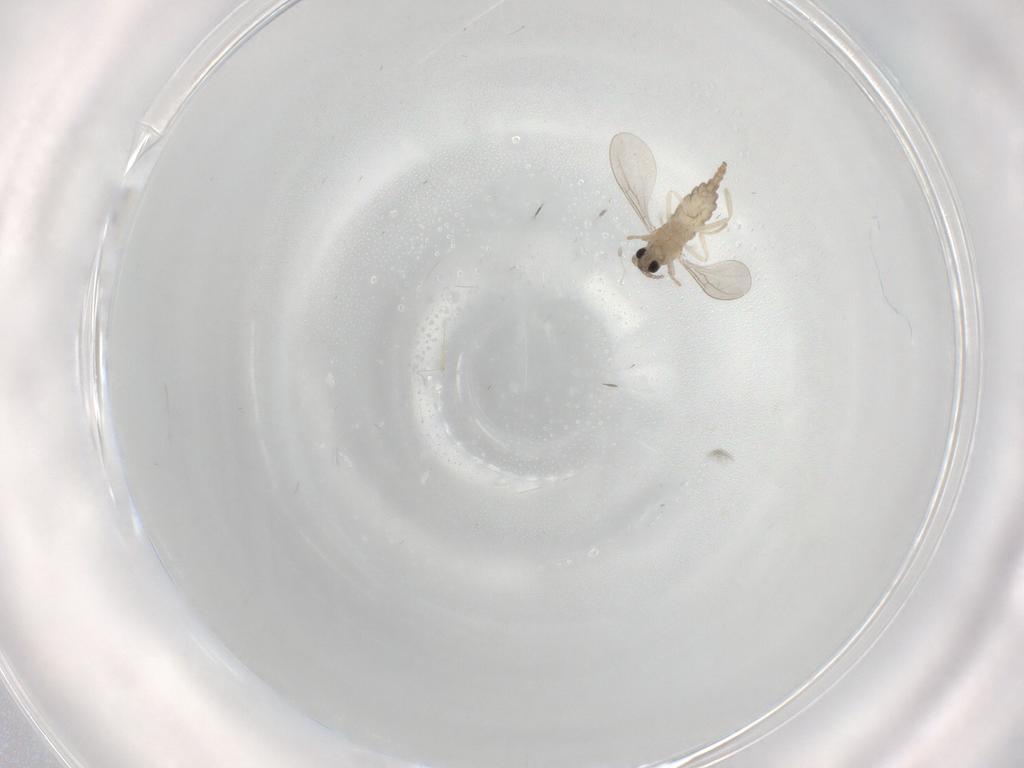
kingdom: Animalia
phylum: Arthropoda
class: Insecta
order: Diptera
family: Cecidomyiidae
